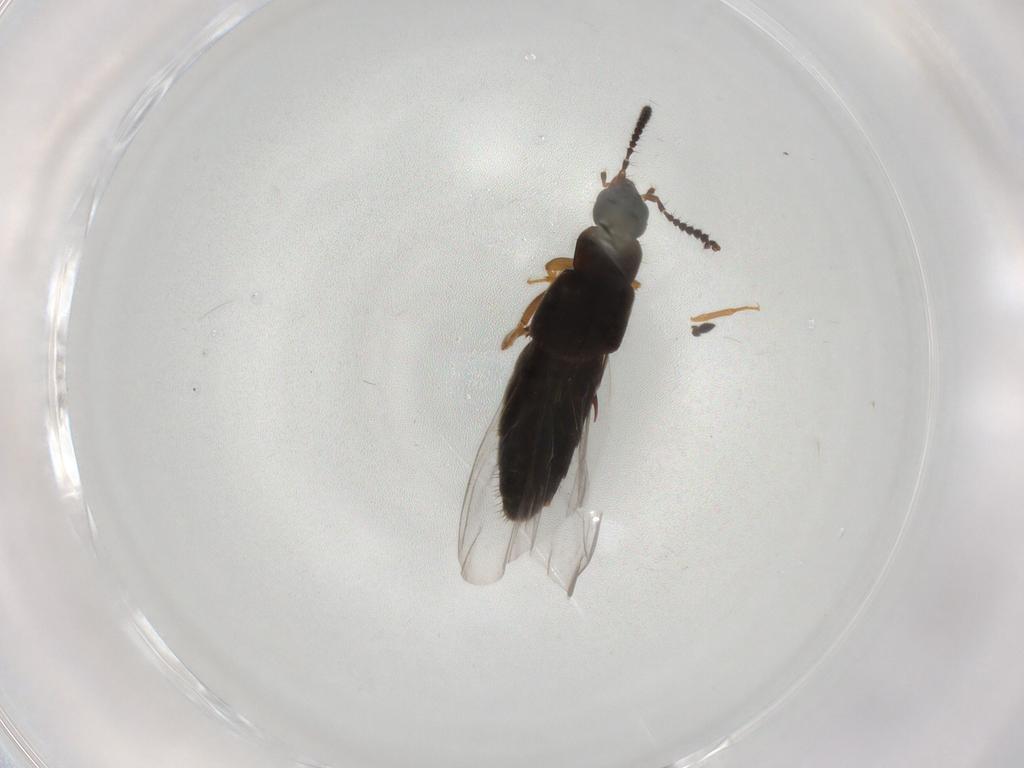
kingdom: Animalia
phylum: Arthropoda
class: Insecta
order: Coleoptera
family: Staphylinidae
